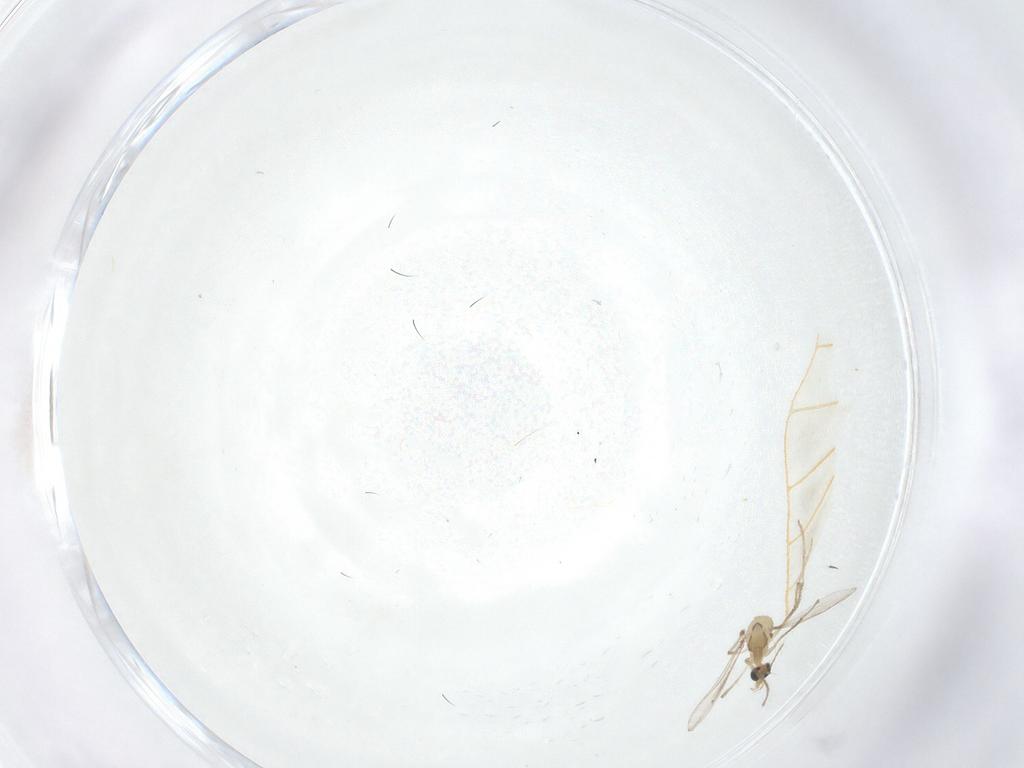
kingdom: Animalia
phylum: Arthropoda
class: Insecta
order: Diptera
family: Chironomidae
